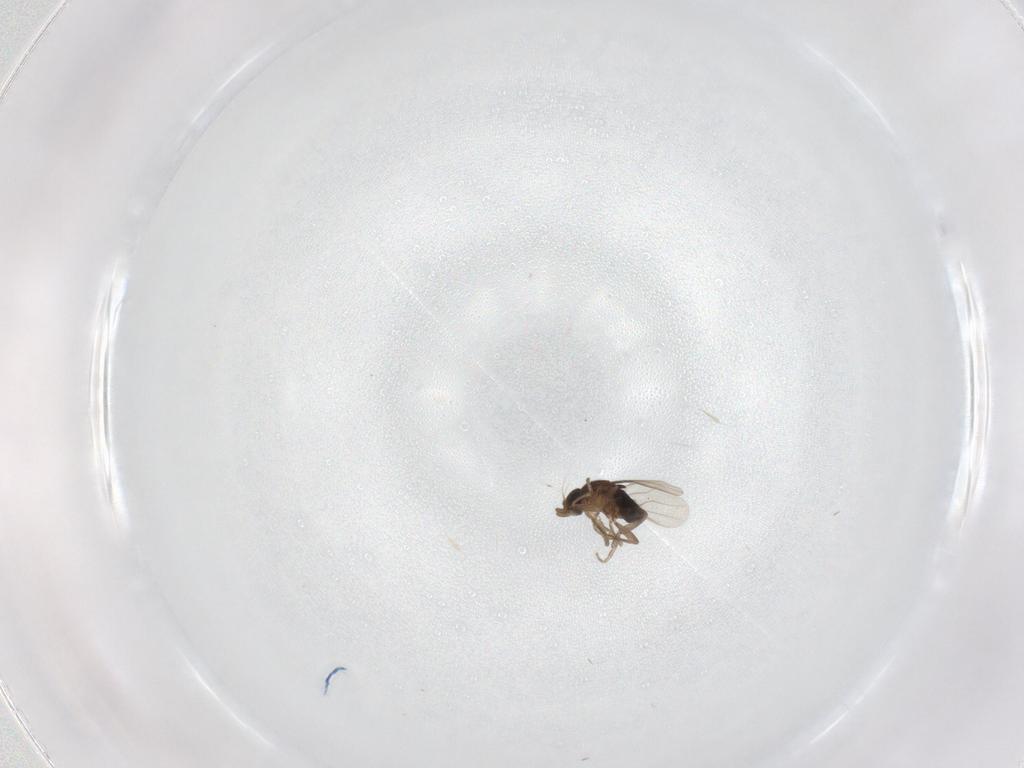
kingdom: Animalia
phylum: Arthropoda
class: Insecta
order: Diptera
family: Phoridae
